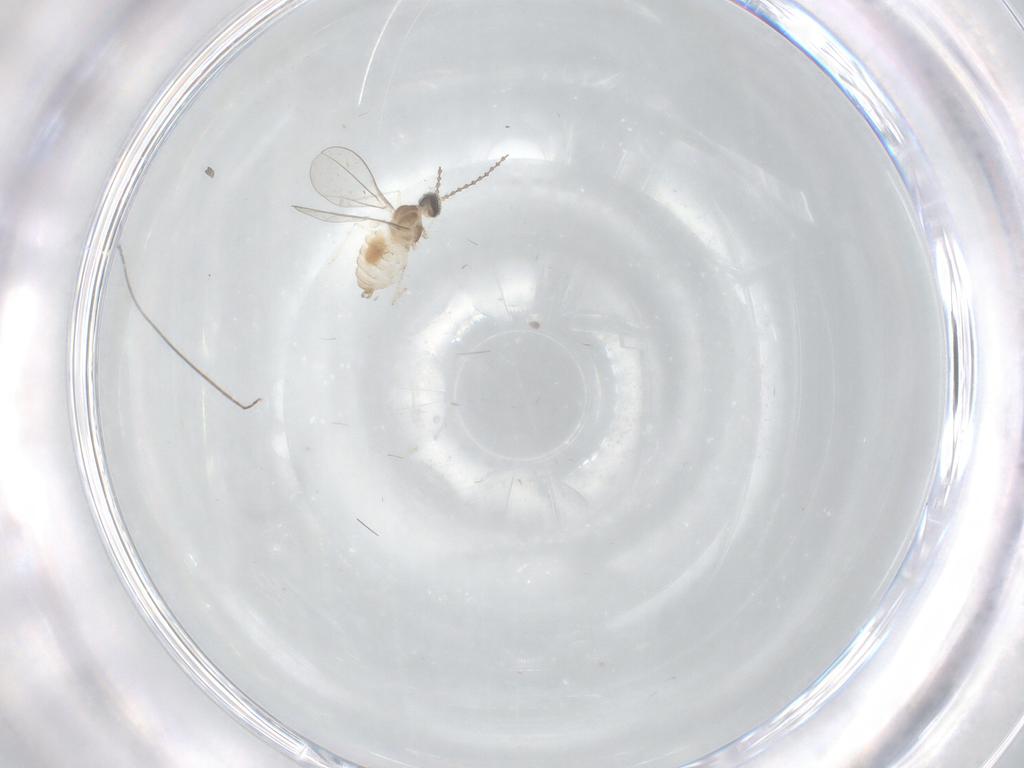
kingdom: Animalia
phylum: Arthropoda
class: Insecta
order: Diptera
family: Cecidomyiidae
